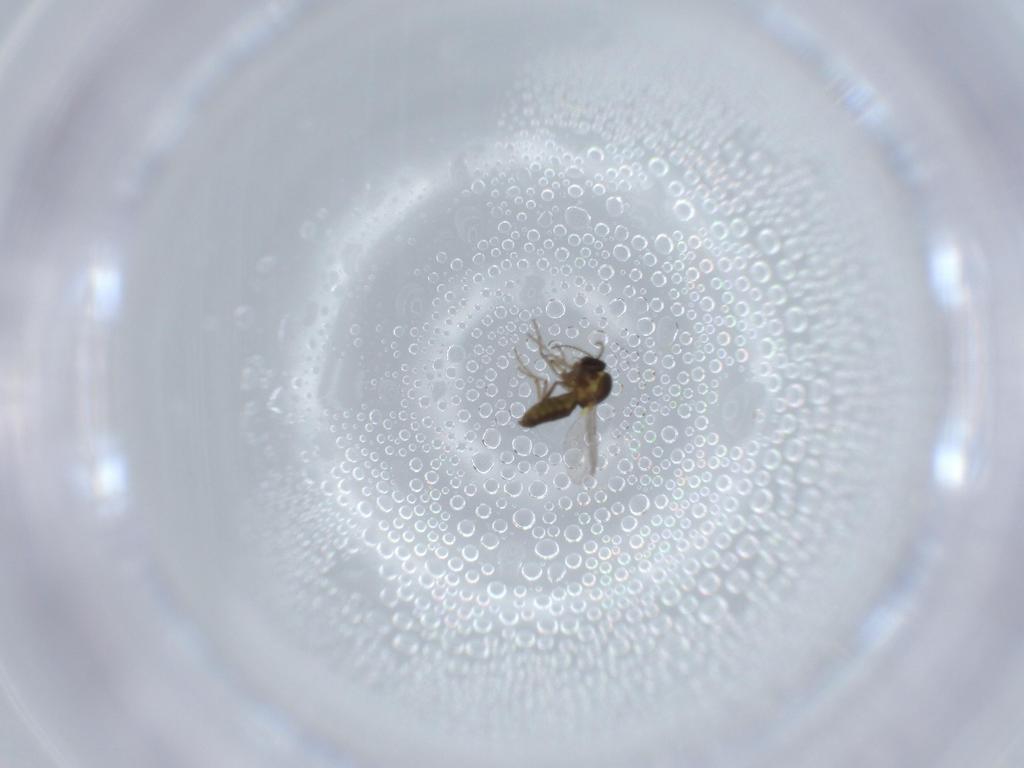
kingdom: Animalia
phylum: Arthropoda
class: Insecta
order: Diptera
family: Ceratopogonidae
